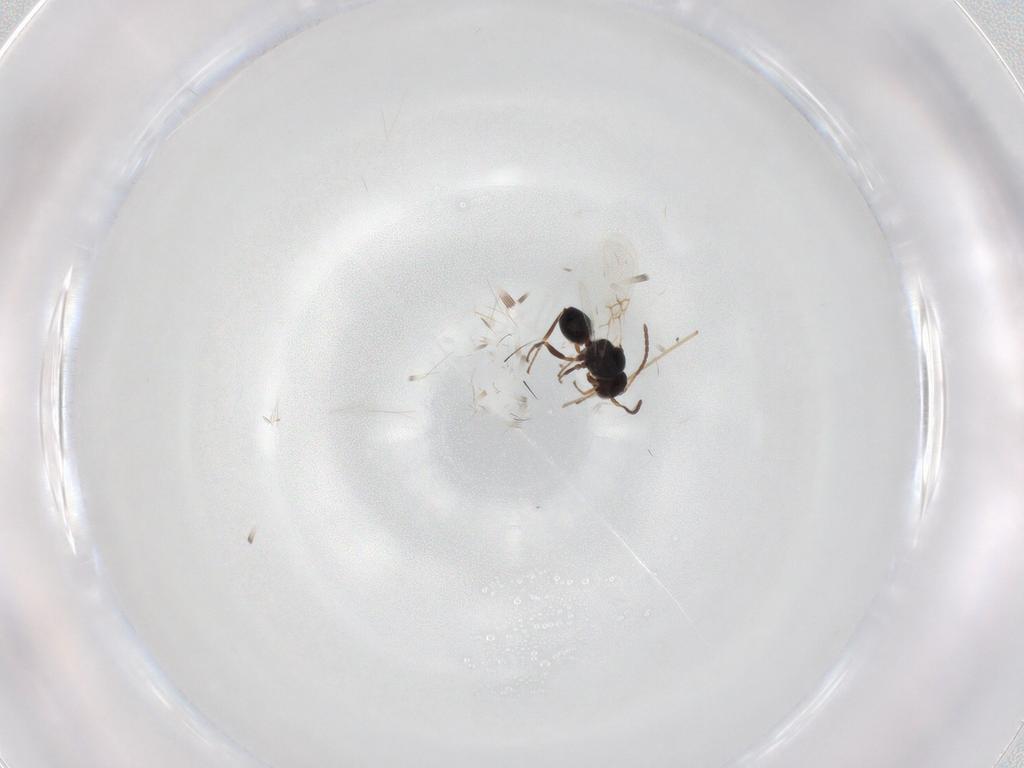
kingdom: Animalia
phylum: Arthropoda
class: Insecta
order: Hymenoptera
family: Figitidae
